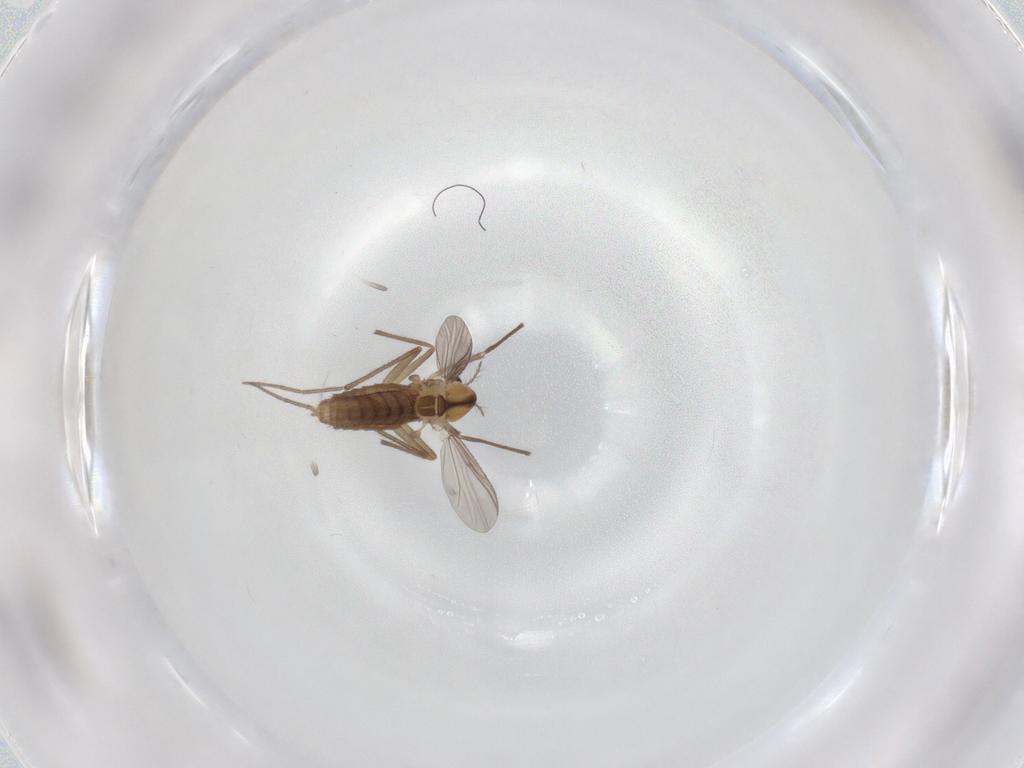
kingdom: Animalia
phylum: Arthropoda
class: Insecta
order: Diptera
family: Chironomidae
